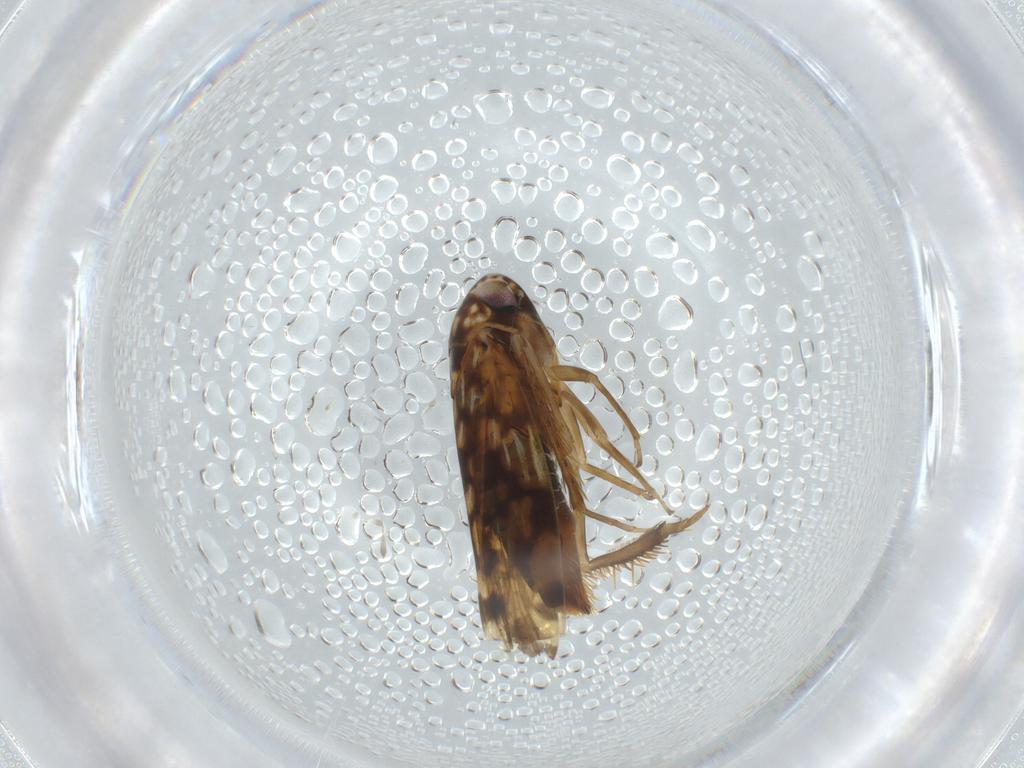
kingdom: Animalia
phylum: Arthropoda
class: Insecta
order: Hemiptera
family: Cicadellidae
